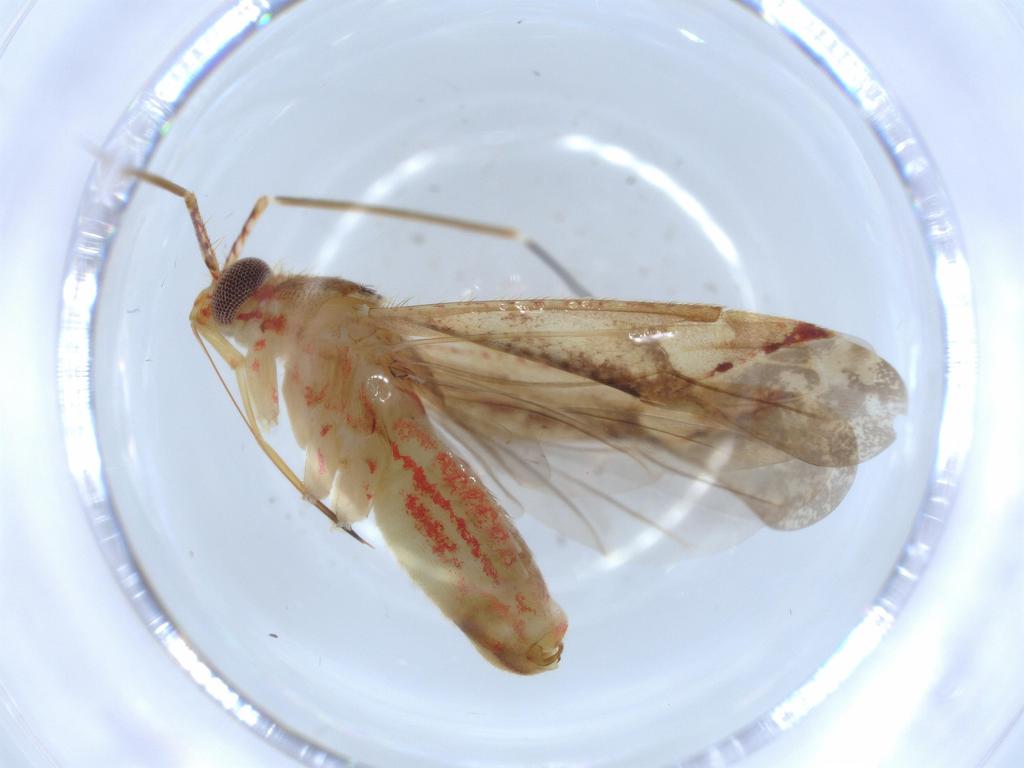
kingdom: Animalia
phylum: Arthropoda
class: Insecta
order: Hemiptera
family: Miridae
